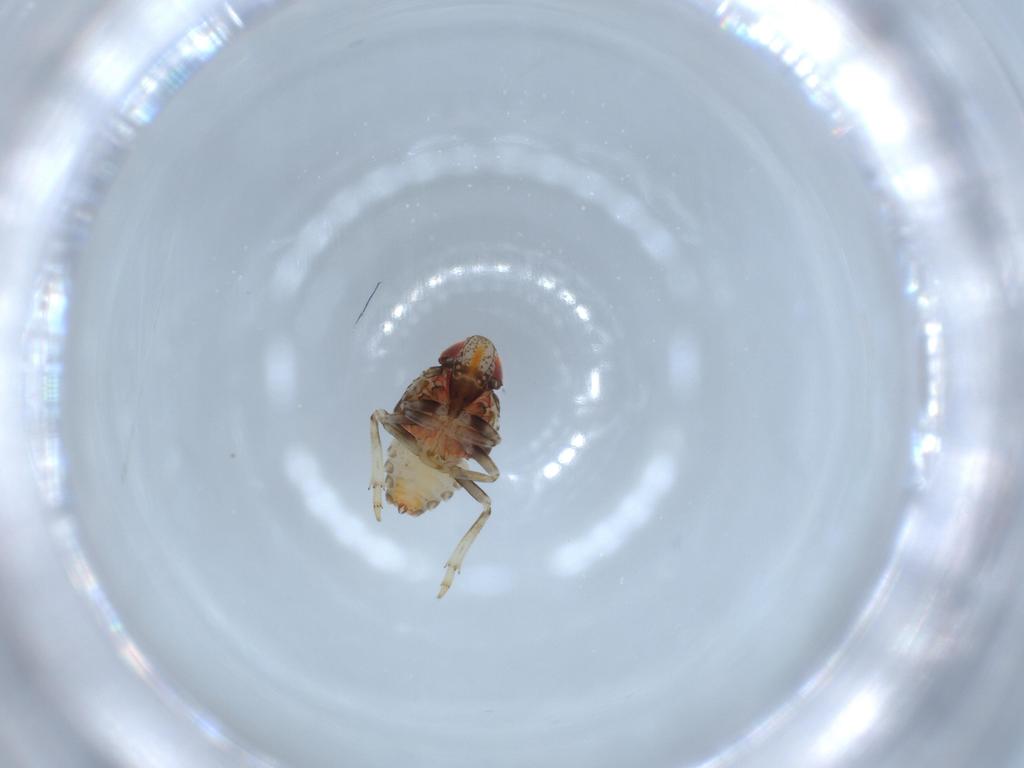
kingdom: Animalia
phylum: Arthropoda
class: Insecta
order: Hemiptera
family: Issidae
